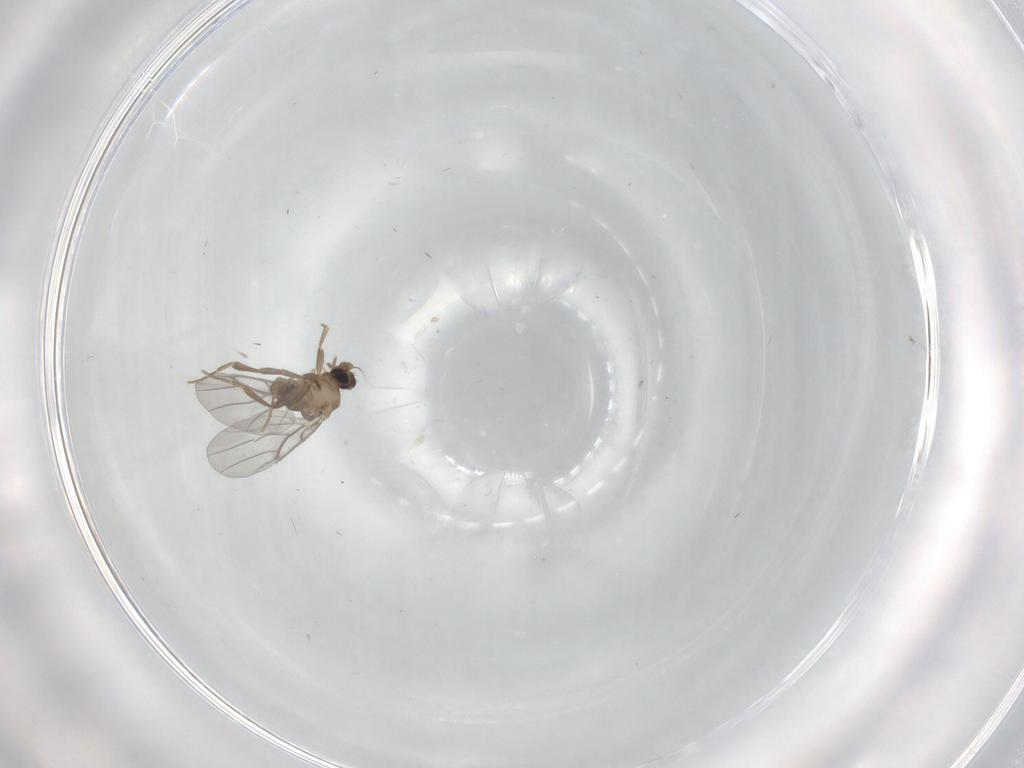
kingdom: Animalia
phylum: Arthropoda
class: Insecta
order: Diptera
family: Cecidomyiidae
